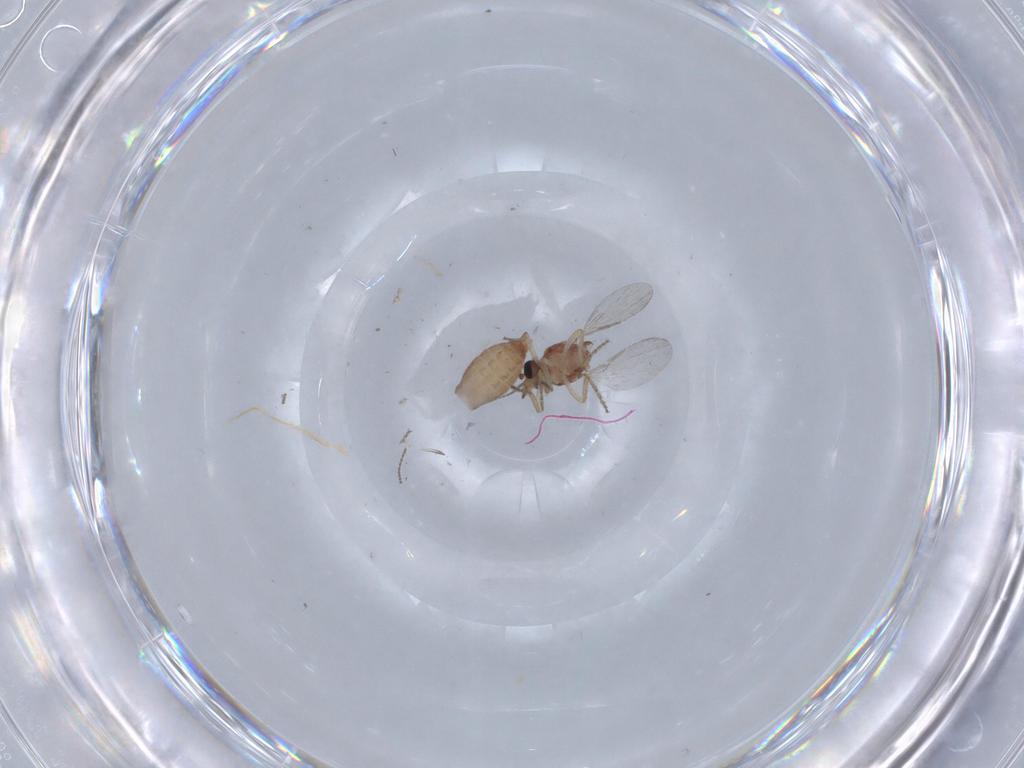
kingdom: Animalia
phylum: Arthropoda
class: Insecta
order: Diptera
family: Ceratopogonidae
